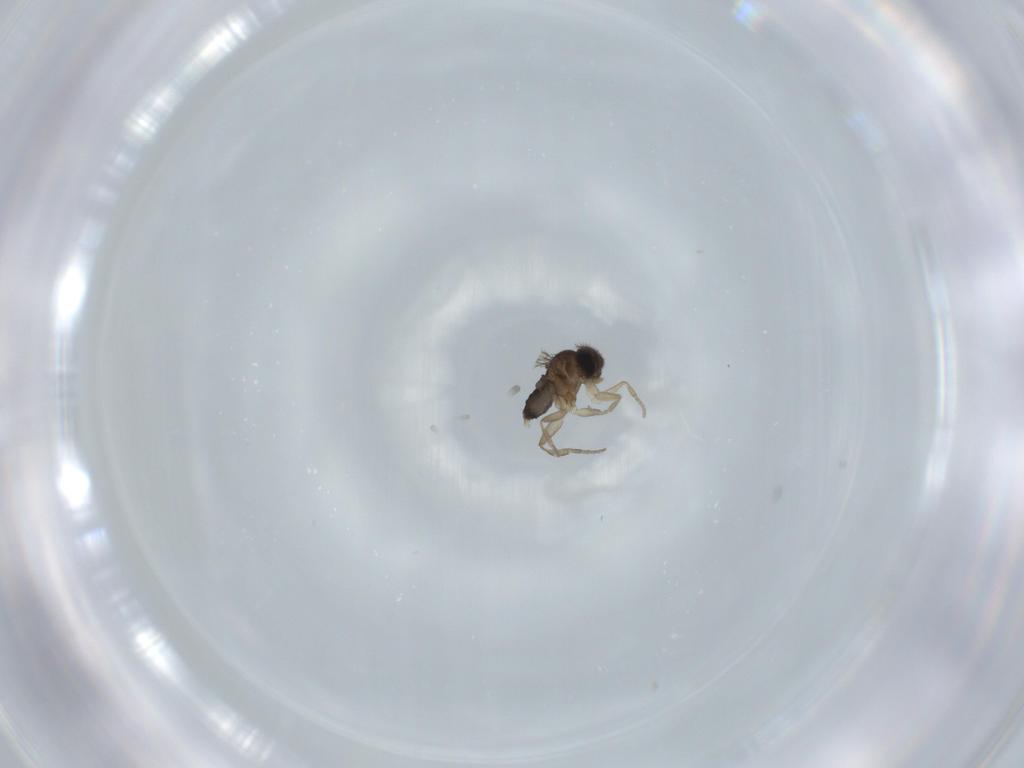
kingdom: Animalia
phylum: Arthropoda
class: Insecta
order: Diptera
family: Phoridae
